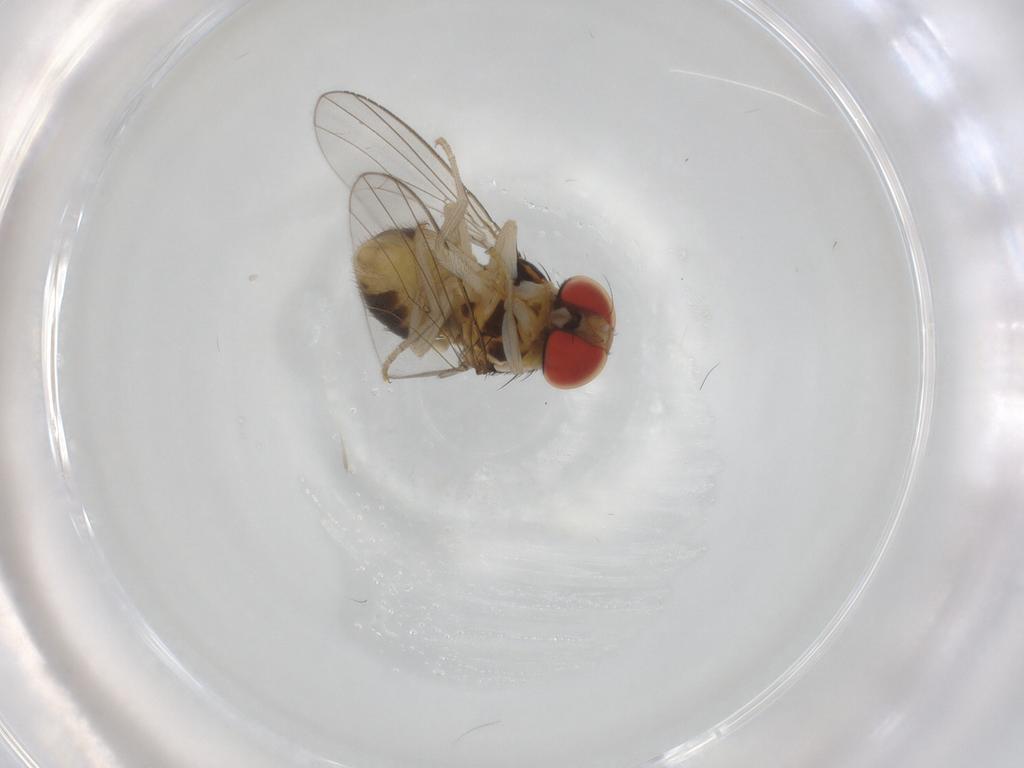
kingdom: Animalia
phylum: Arthropoda
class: Insecta
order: Diptera
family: Drosophilidae
